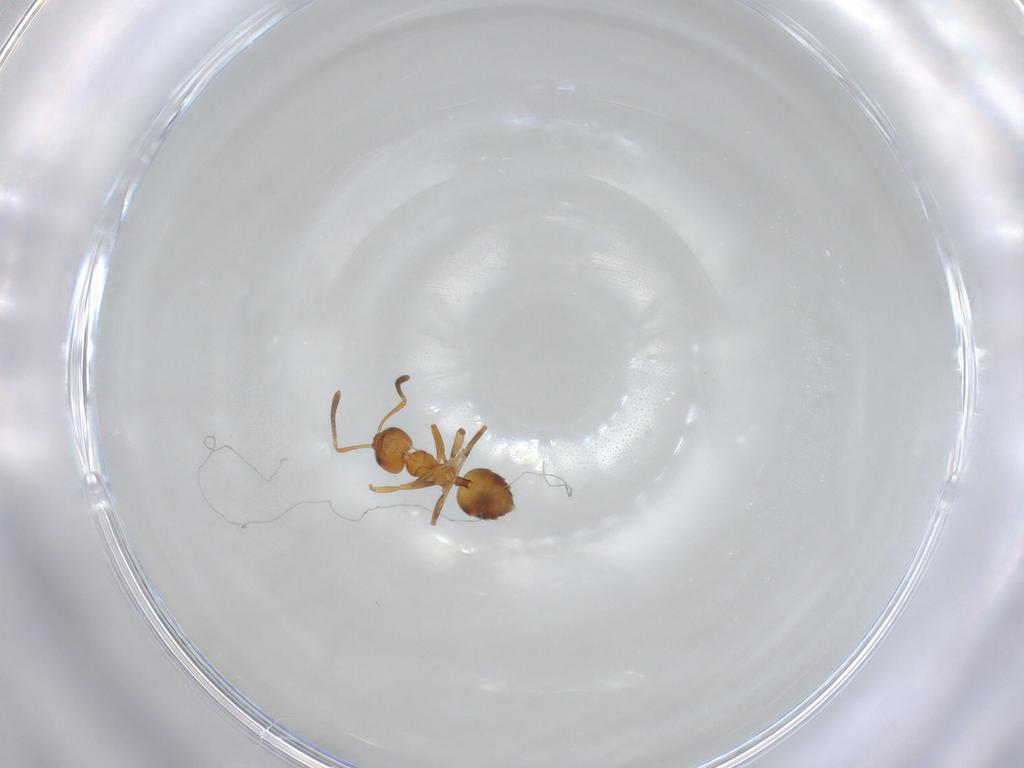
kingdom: Animalia
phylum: Arthropoda
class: Insecta
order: Hymenoptera
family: Formicidae
